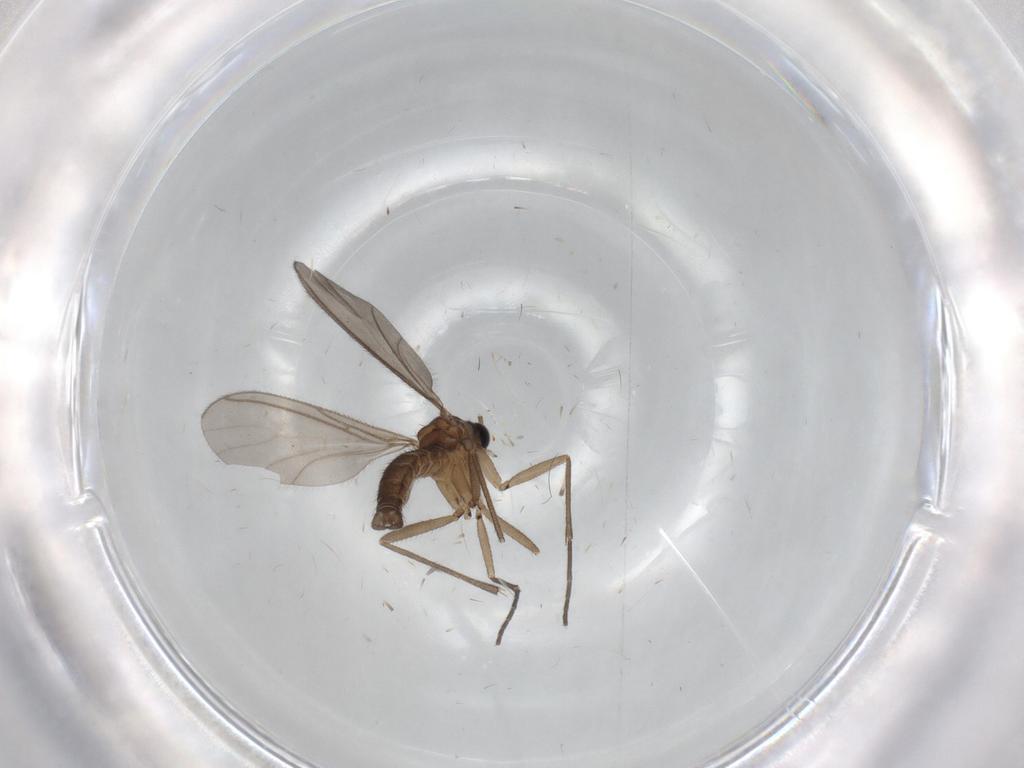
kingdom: Animalia
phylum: Arthropoda
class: Insecta
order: Diptera
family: Sciaridae
